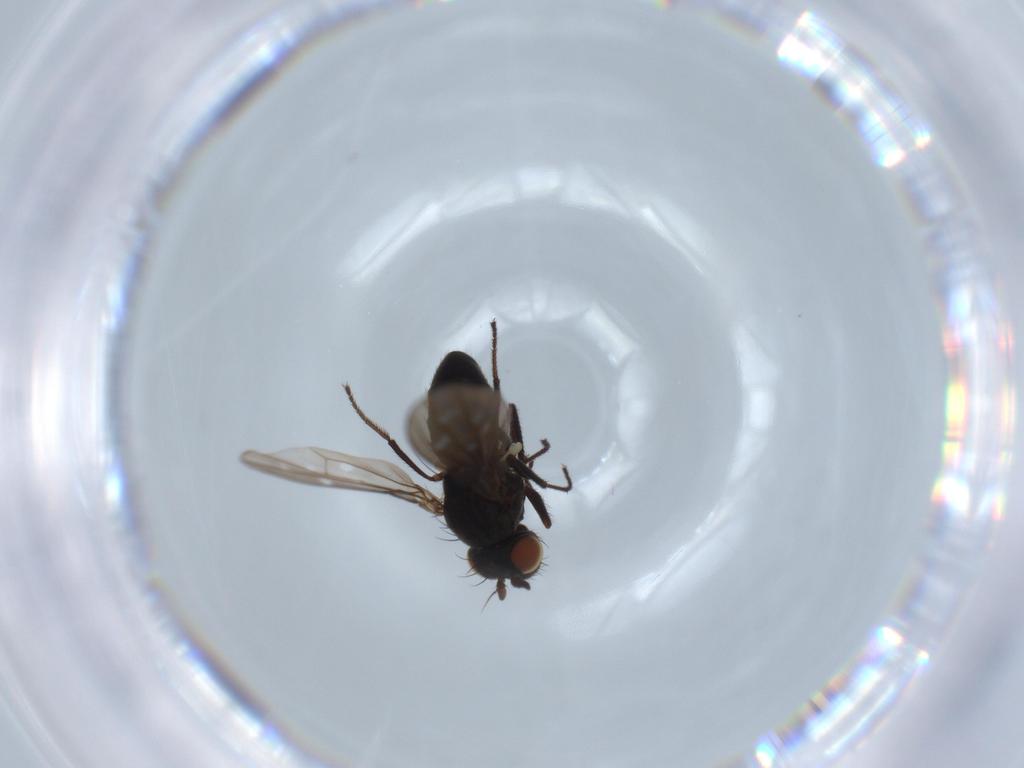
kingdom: Animalia
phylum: Arthropoda
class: Insecta
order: Diptera
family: Ephydridae
